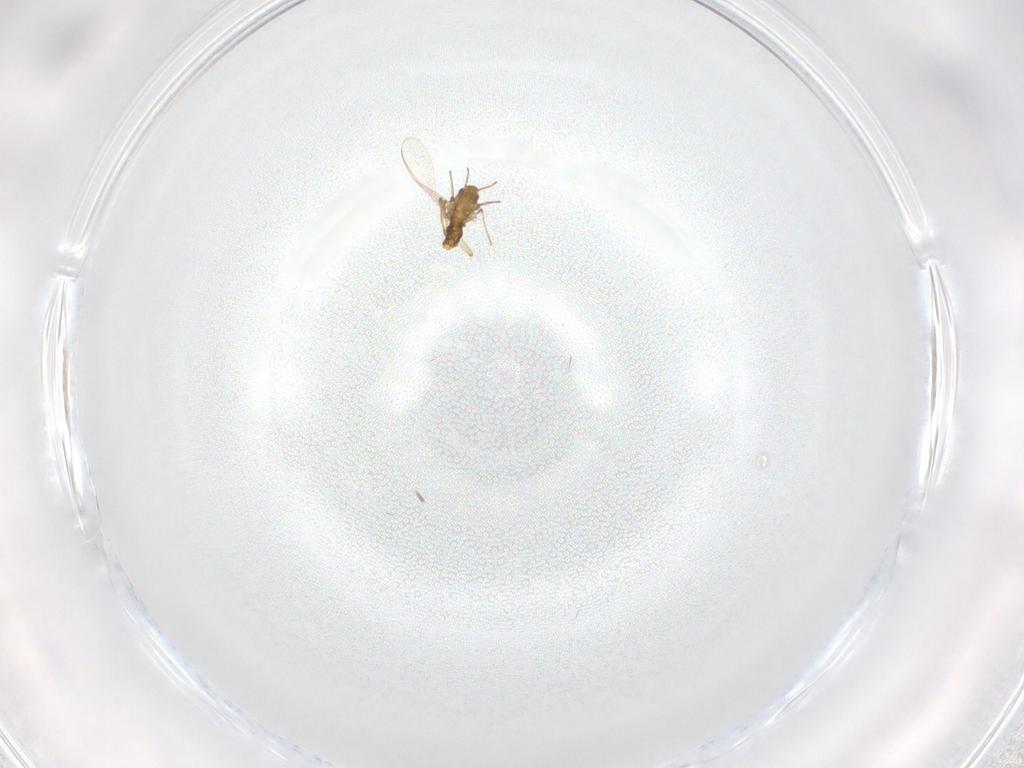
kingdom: Animalia
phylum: Arthropoda
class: Insecta
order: Diptera
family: Chironomidae
